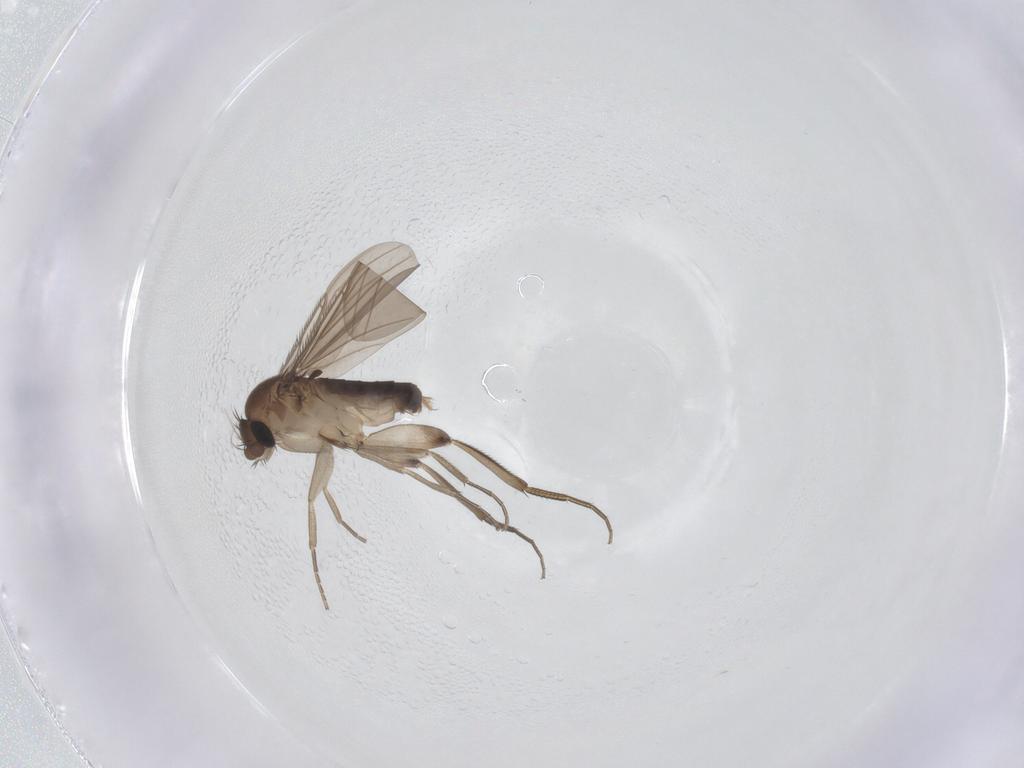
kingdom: Animalia
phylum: Arthropoda
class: Insecta
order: Diptera
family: Phoridae
